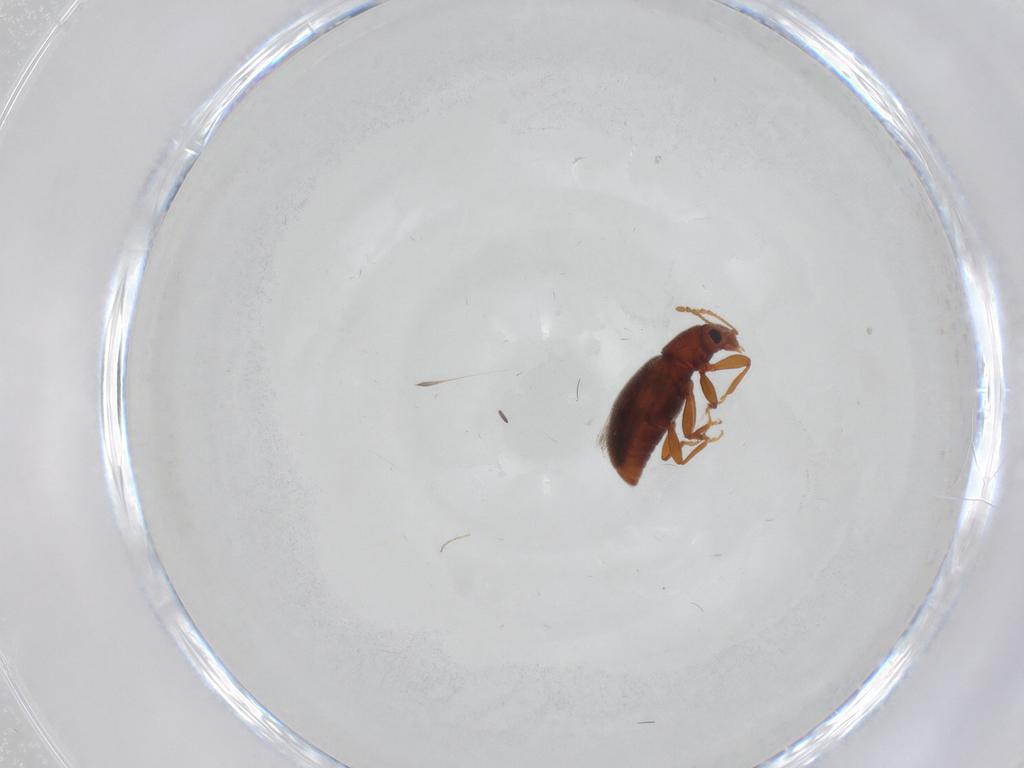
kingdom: Animalia
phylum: Arthropoda
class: Insecta
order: Coleoptera
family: Latridiidae
